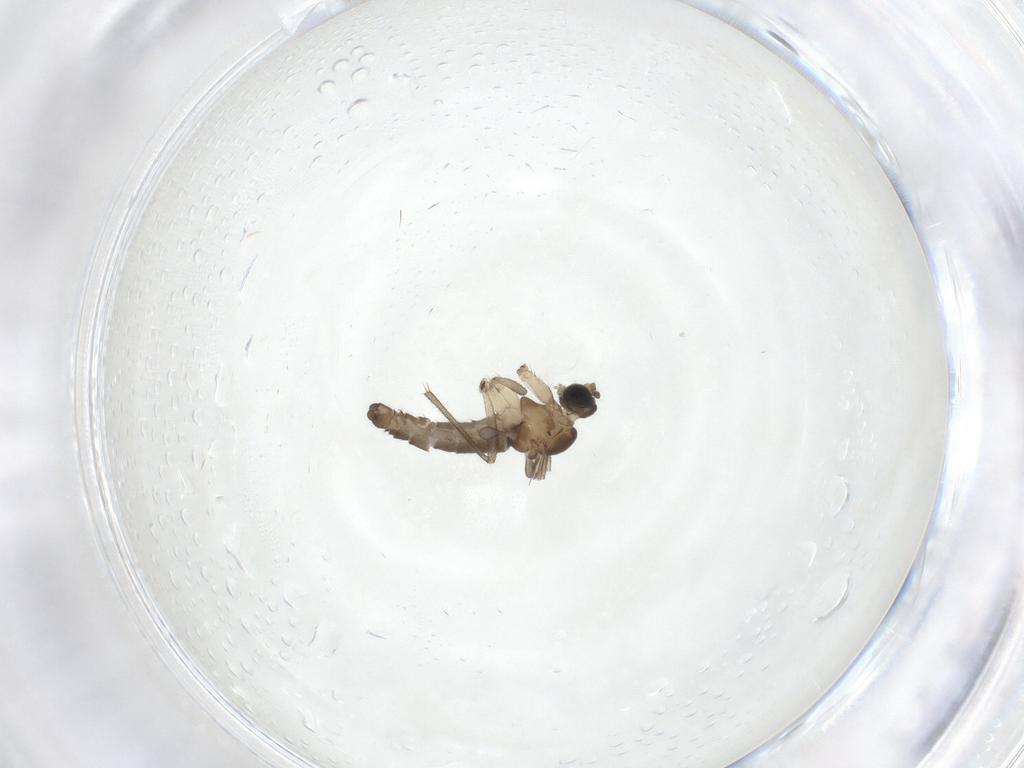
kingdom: Animalia
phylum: Arthropoda
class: Insecta
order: Diptera
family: Sciaridae
